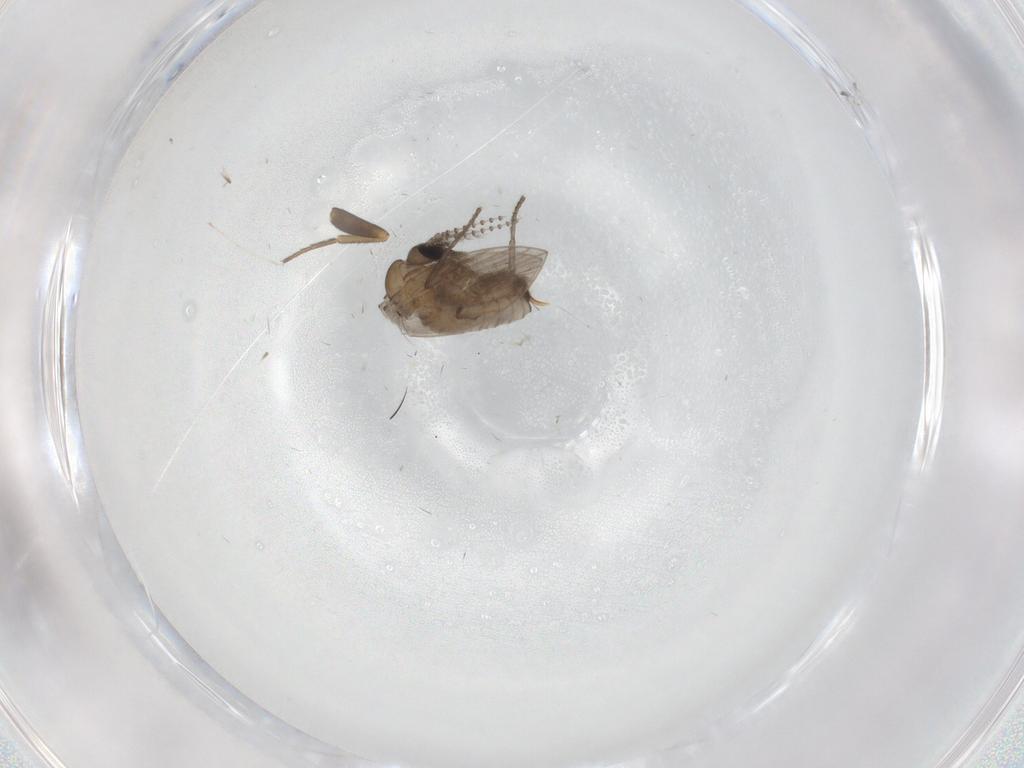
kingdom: Animalia
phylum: Arthropoda
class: Insecta
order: Diptera
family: Psychodidae
